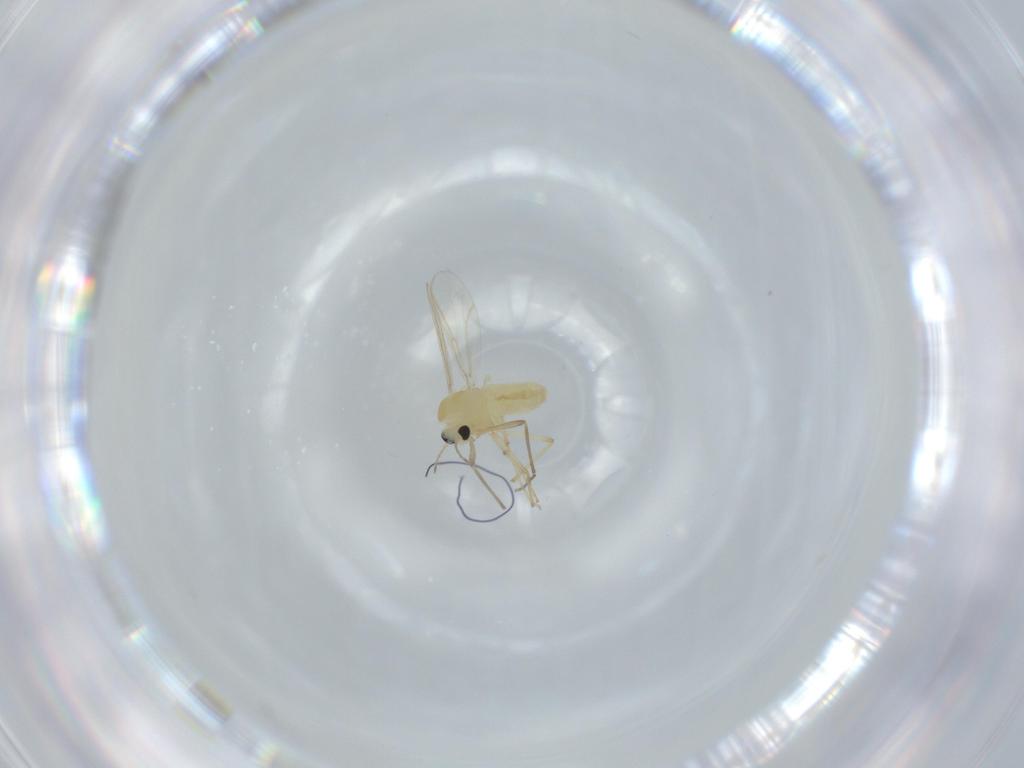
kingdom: Animalia
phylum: Arthropoda
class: Insecta
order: Diptera
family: Chironomidae
